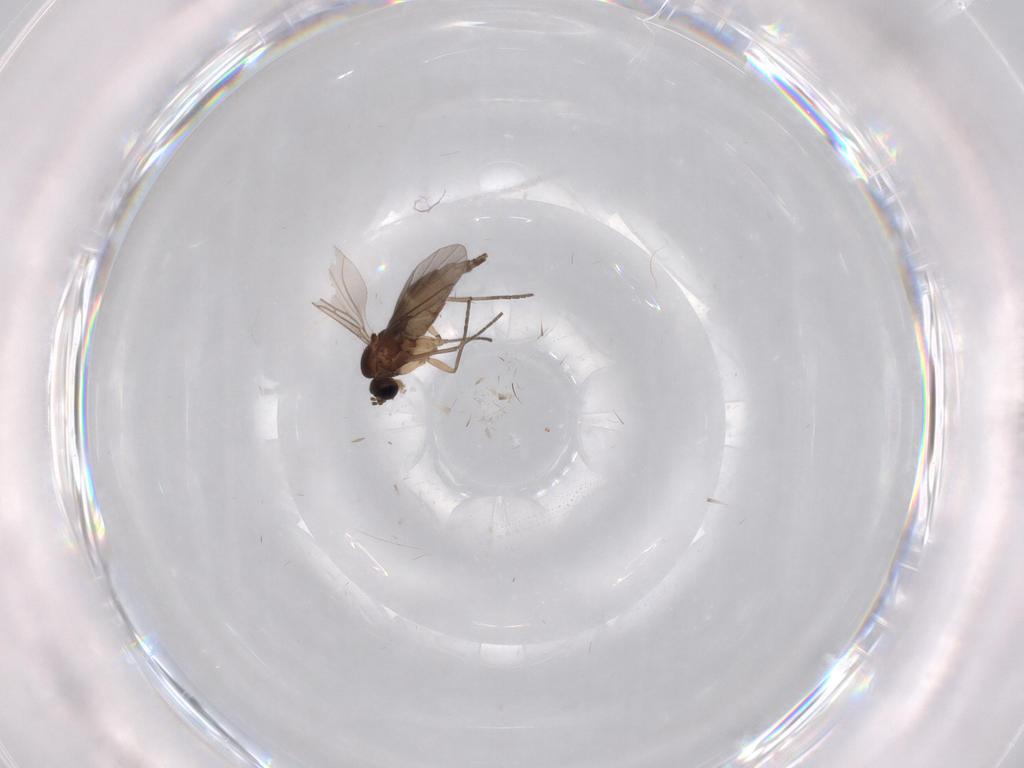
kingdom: Animalia
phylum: Arthropoda
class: Insecta
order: Diptera
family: Sciaridae
